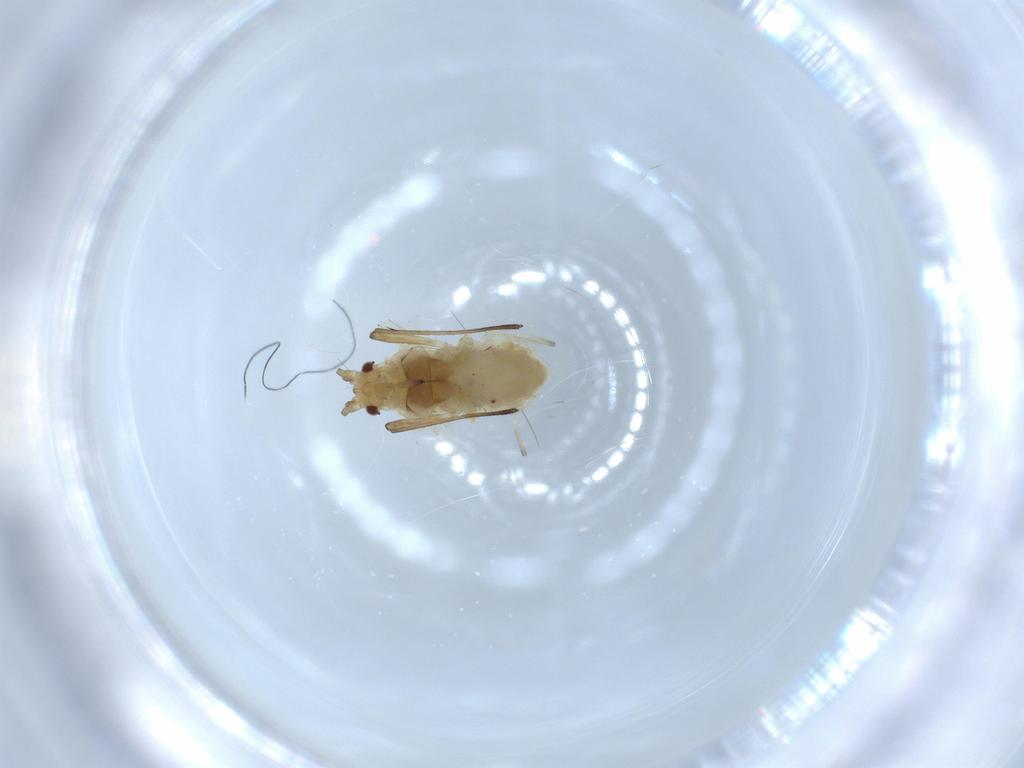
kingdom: Animalia
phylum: Arthropoda
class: Insecta
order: Hemiptera
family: Aphididae
